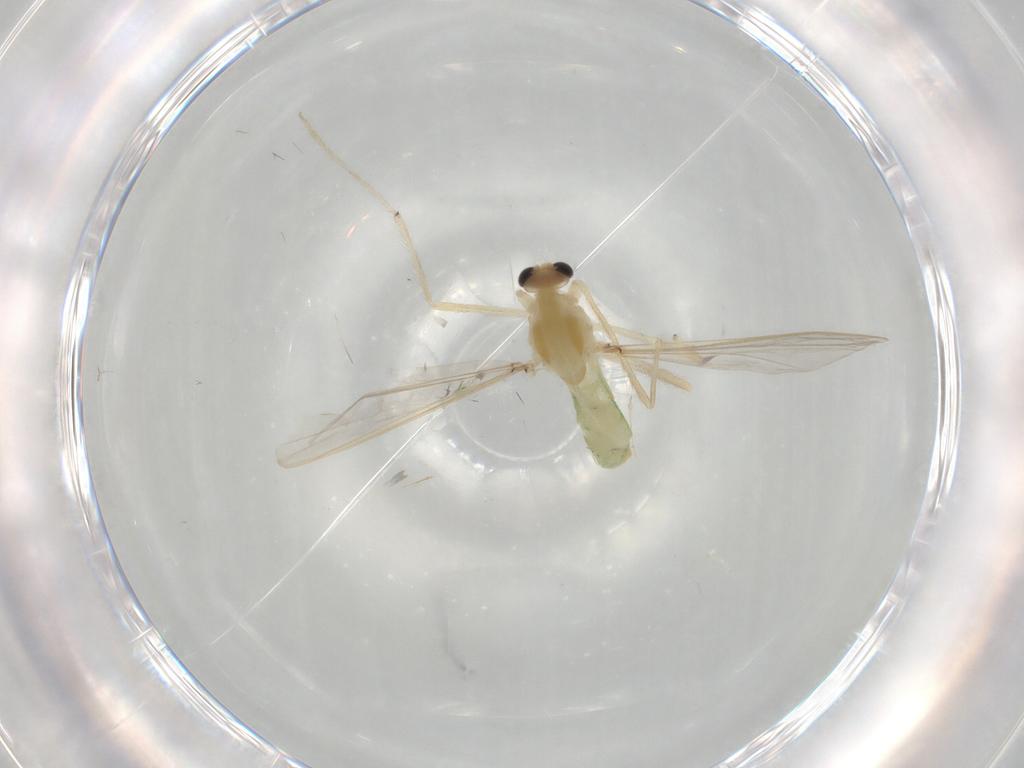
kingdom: Animalia
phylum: Arthropoda
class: Insecta
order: Diptera
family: Chironomidae
